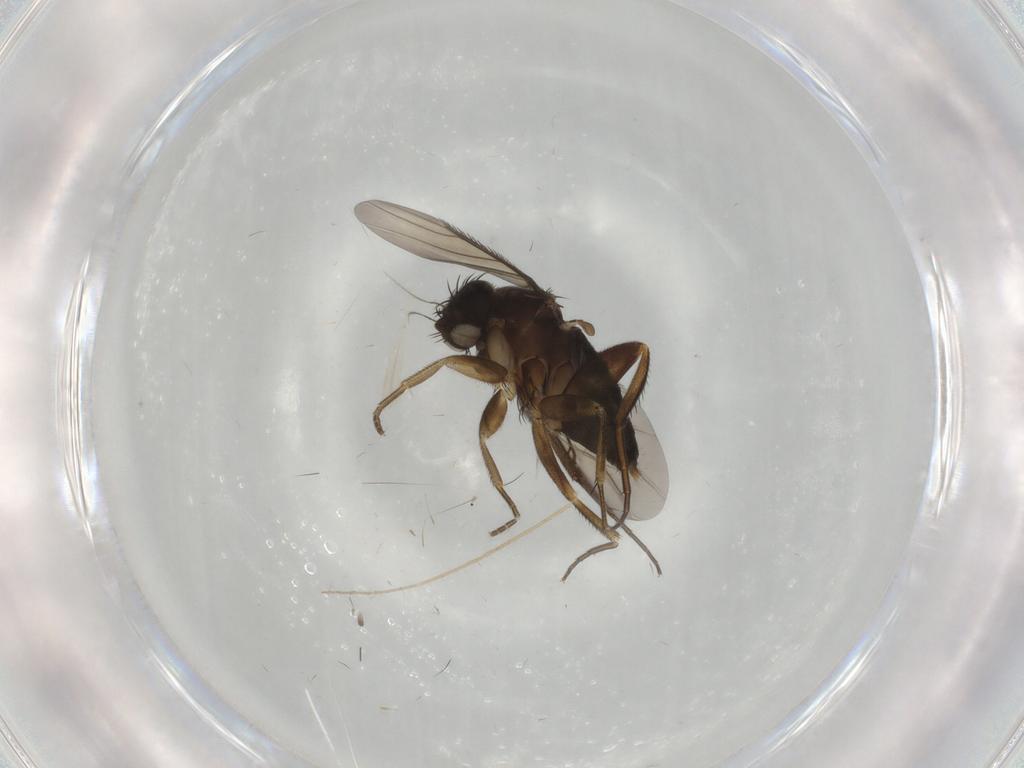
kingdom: Animalia
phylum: Arthropoda
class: Insecta
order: Diptera
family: Phoridae
